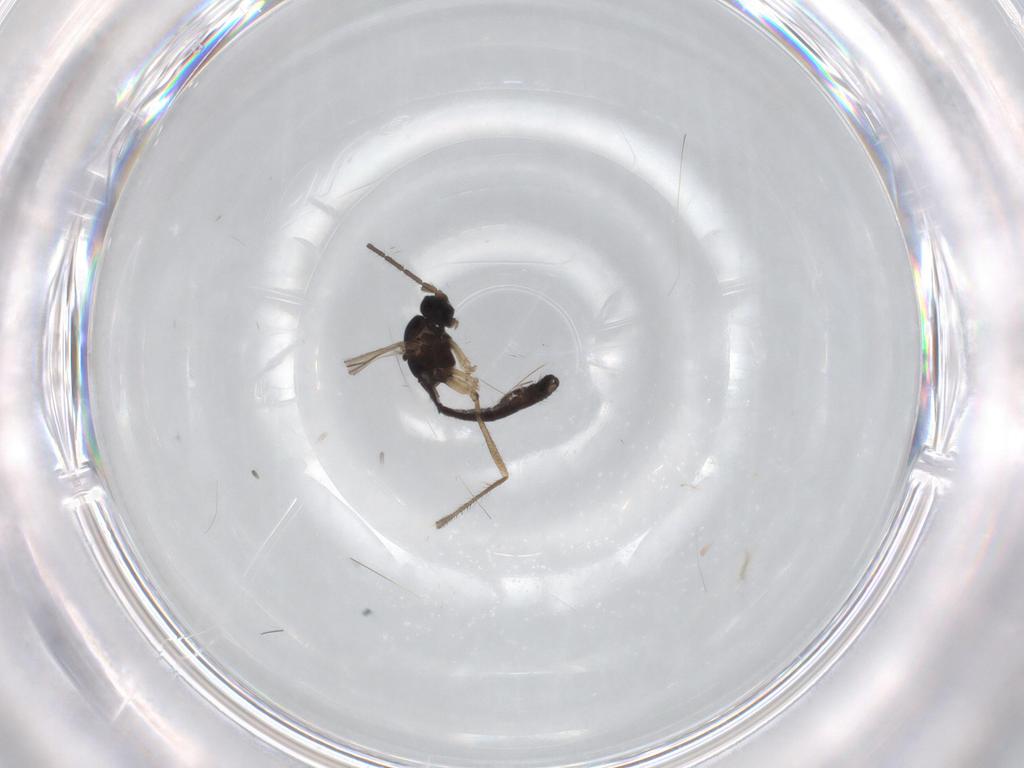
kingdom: Animalia
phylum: Arthropoda
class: Insecta
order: Diptera
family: Sciaridae
